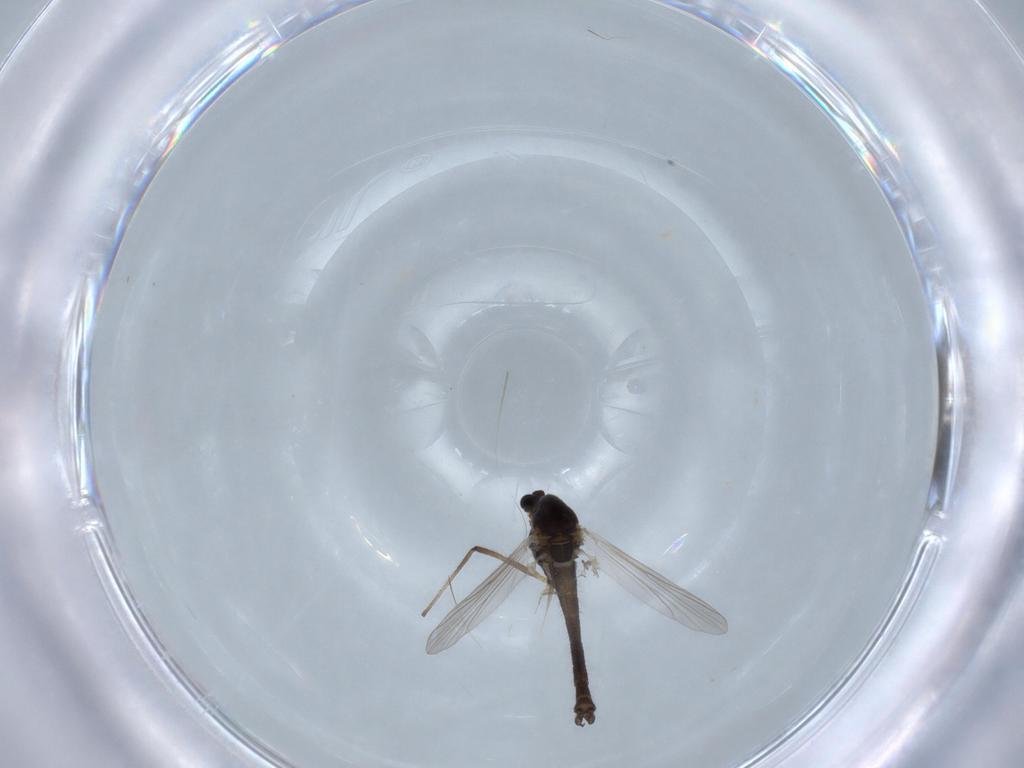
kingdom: Animalia
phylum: Arthropoda
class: Insecta
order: Diptera
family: Chironomidae
